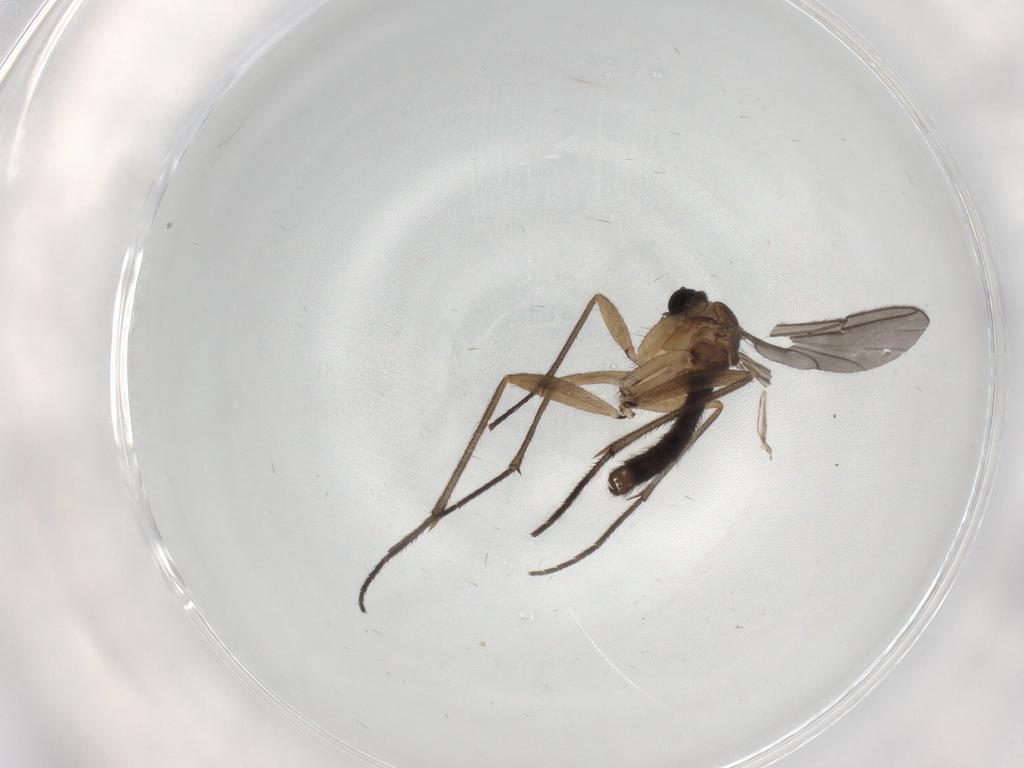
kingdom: Animalia
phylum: Arthropoda
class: Insecta
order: Diptera
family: Sciaridae
